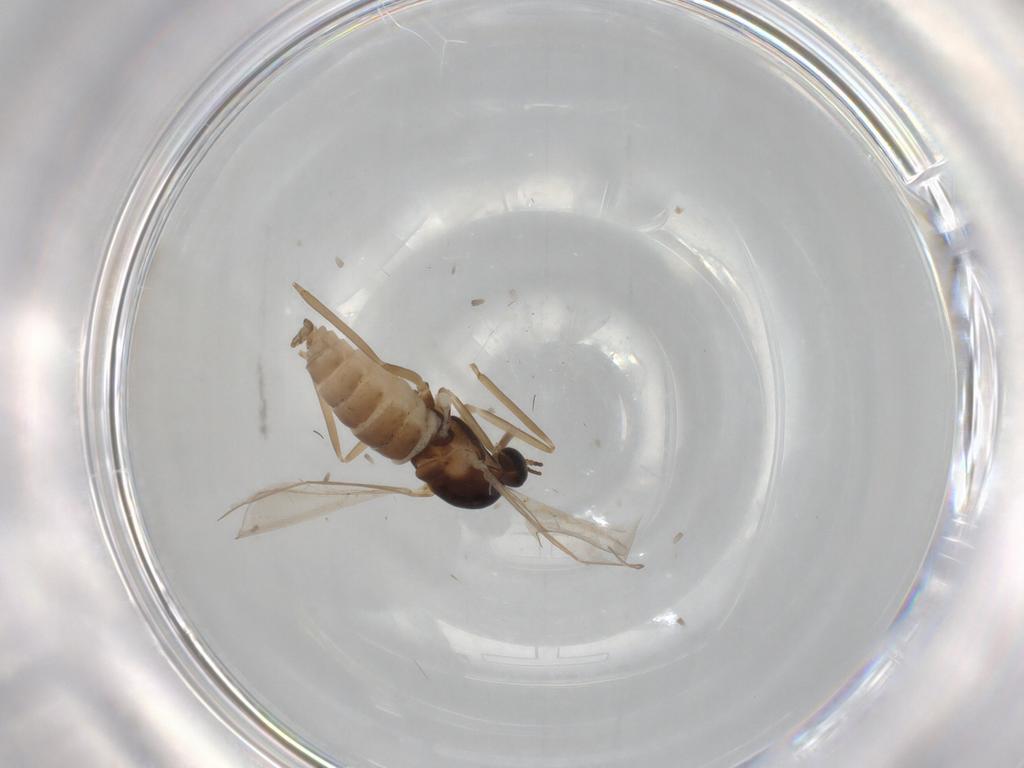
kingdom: Animalia
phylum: Arthropoda
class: Insecta
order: Diptera
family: Cecidomyiidae
